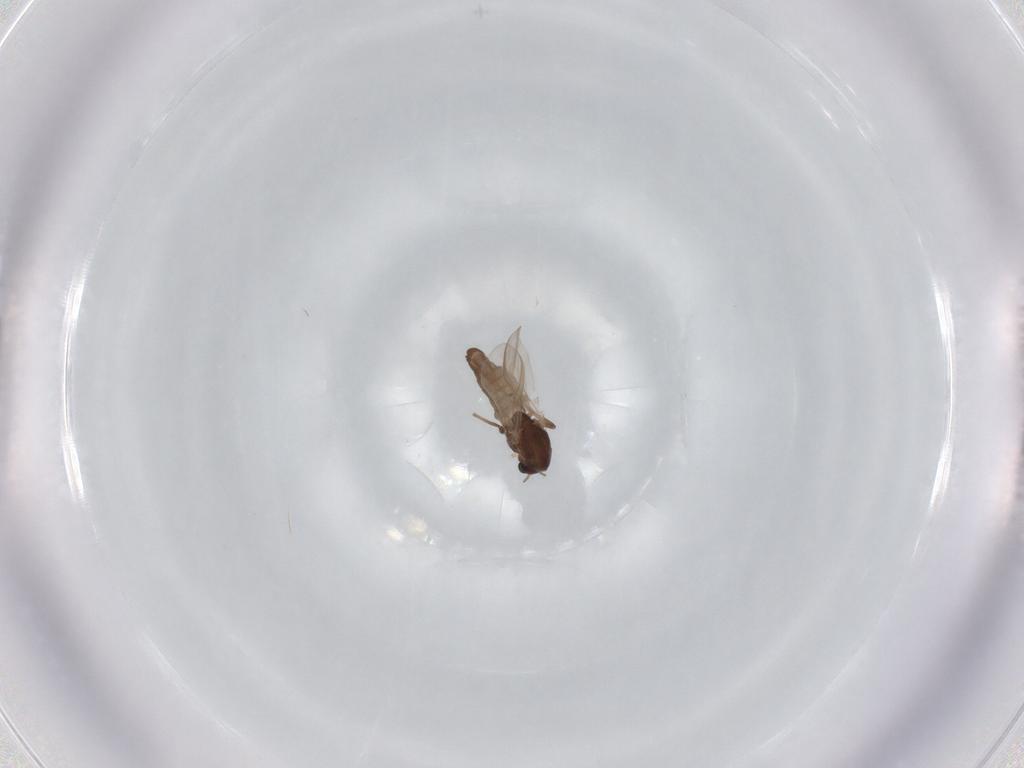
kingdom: Animalia
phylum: Arthropoda
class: Insecta
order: Diptera
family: Chironomidae
